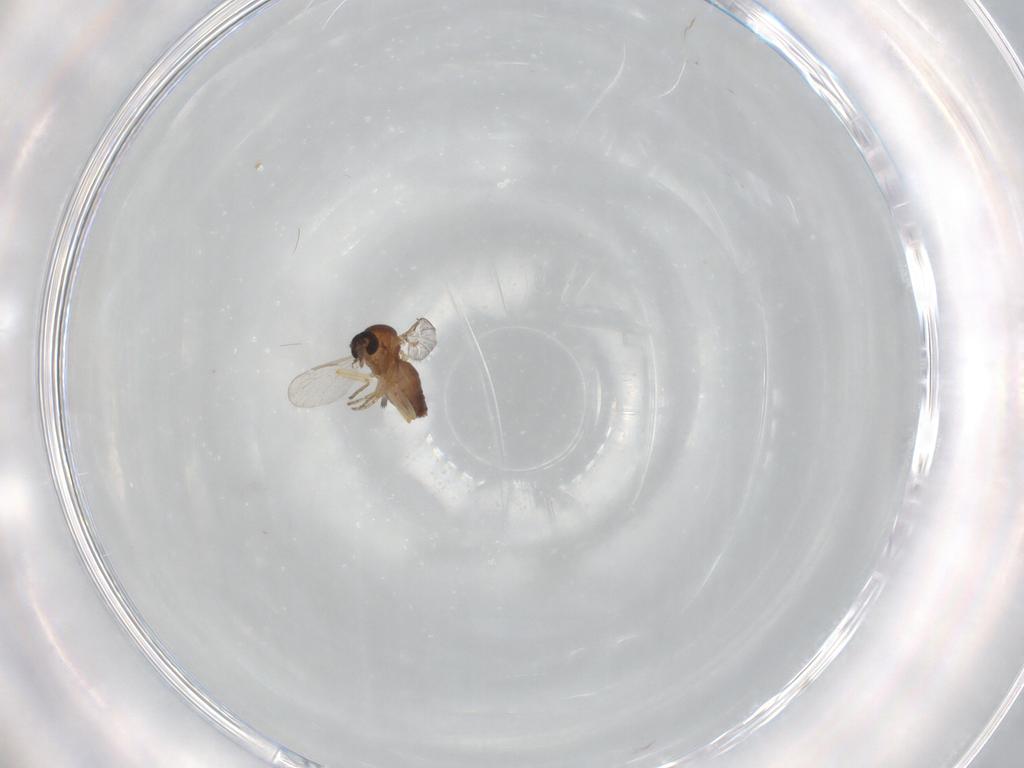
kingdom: Animalia
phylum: Arthropoda
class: Insecta
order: Diptera
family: Ceratopogonidae
